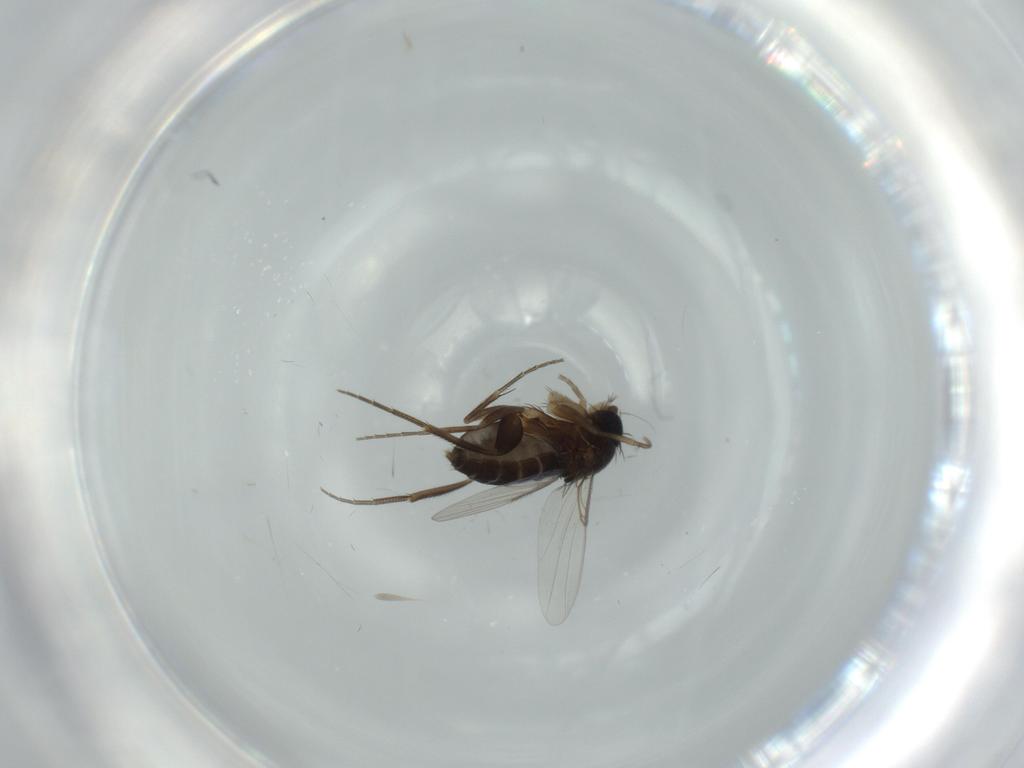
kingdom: Animalia
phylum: Arthropoda
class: Insecta
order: Diptera
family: Phoridae
